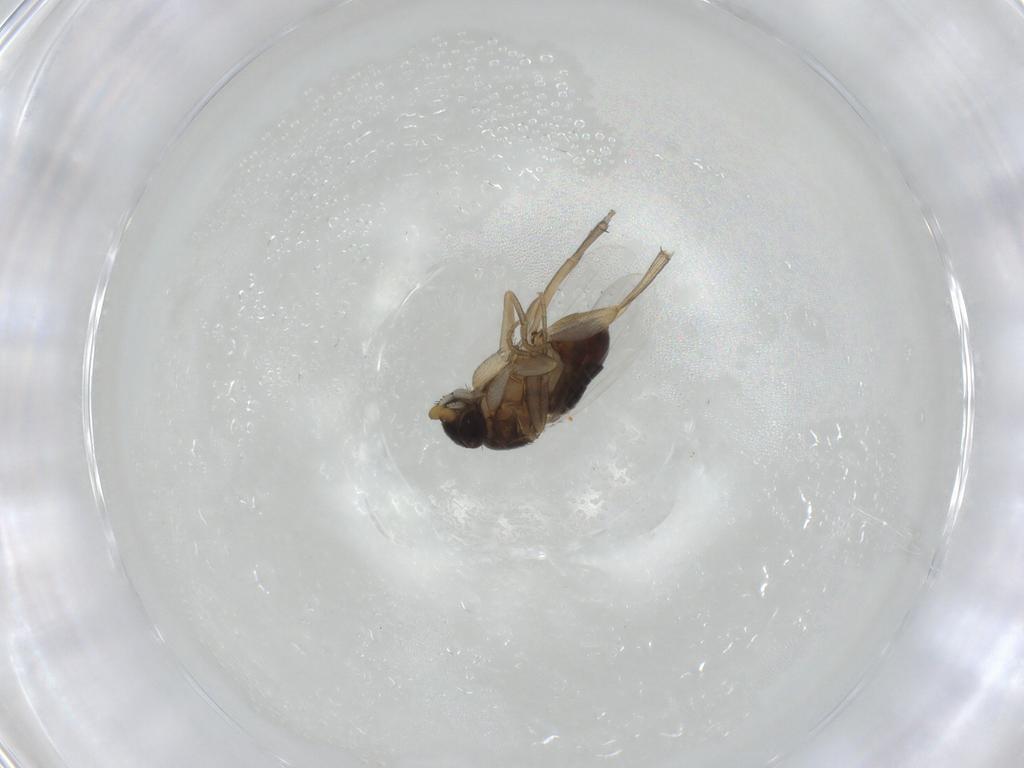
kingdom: Animalia
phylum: Arthropoda
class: Insecta
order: Diptera
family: Phoridae
